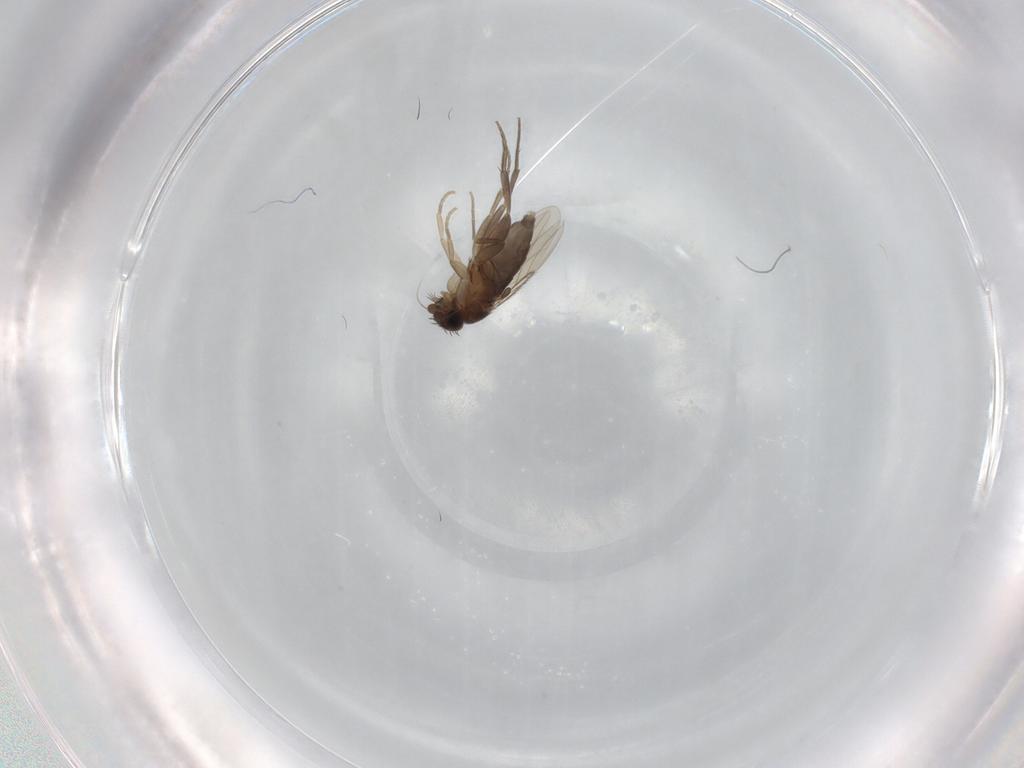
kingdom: Animalia
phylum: Arthropoda
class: Insecta
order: Diptera
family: Phoridae
